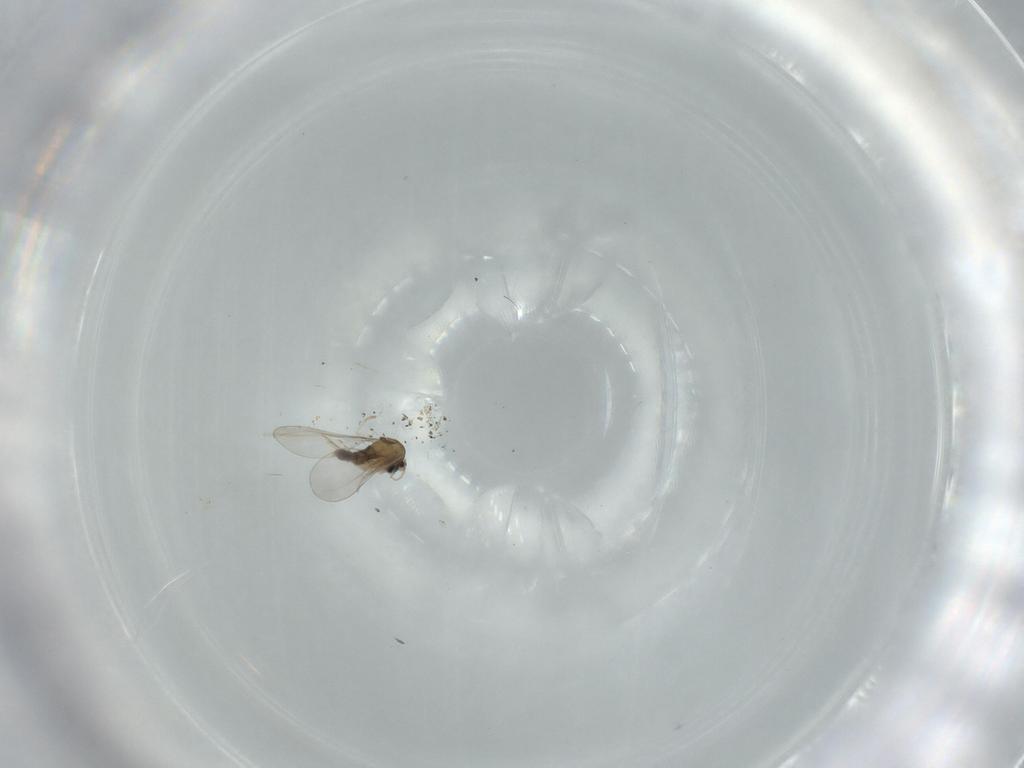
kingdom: Animalia
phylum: Arthropoda
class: Insecta
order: Diptera
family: Cecidomyiidae
